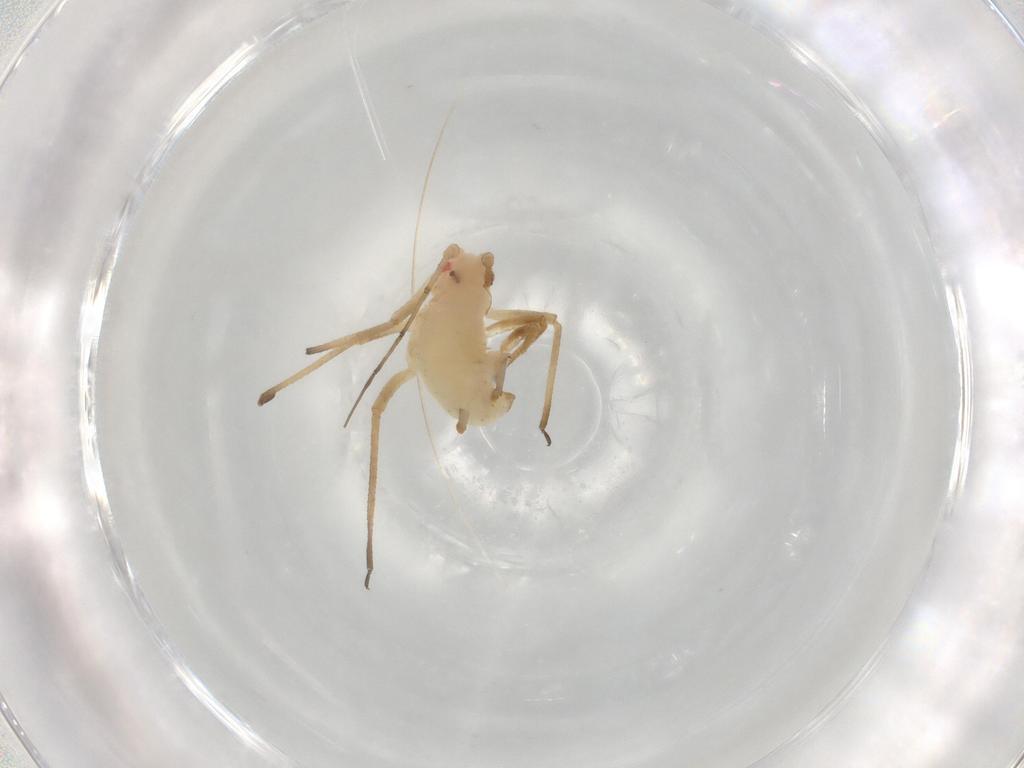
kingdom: Animalia
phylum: Arthropoda
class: Insecta
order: Hemiptera
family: Aphididae
